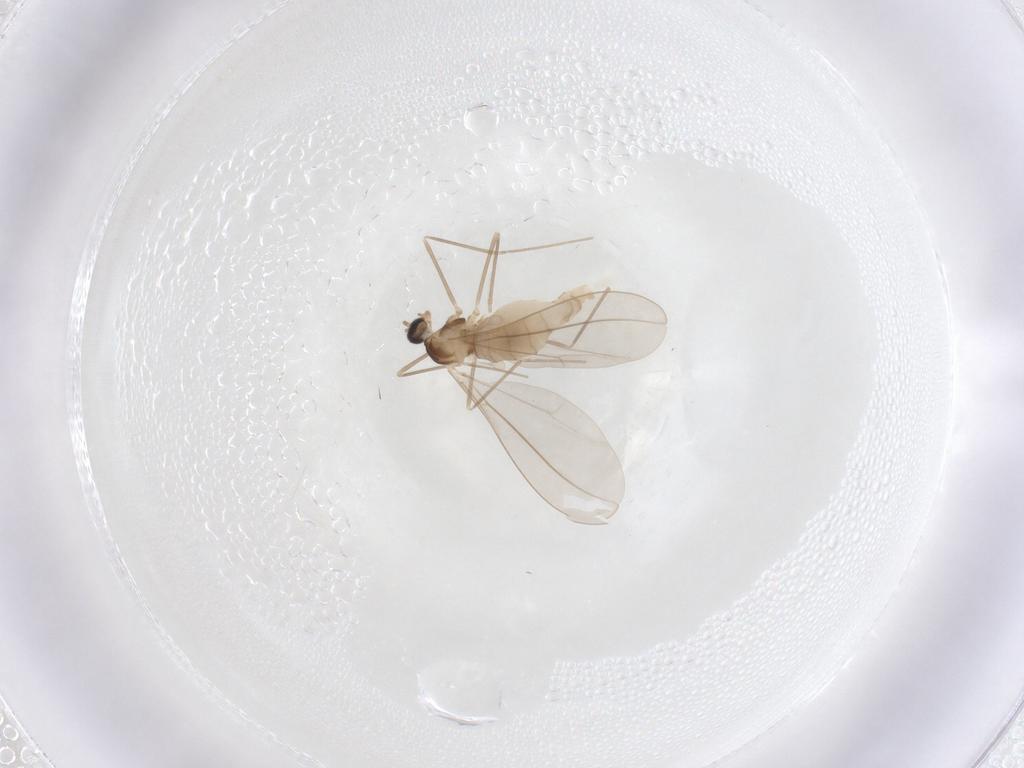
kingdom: Animalia
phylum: Arthropoda
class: Insecta
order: Diptera
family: Cecidomyiidae
